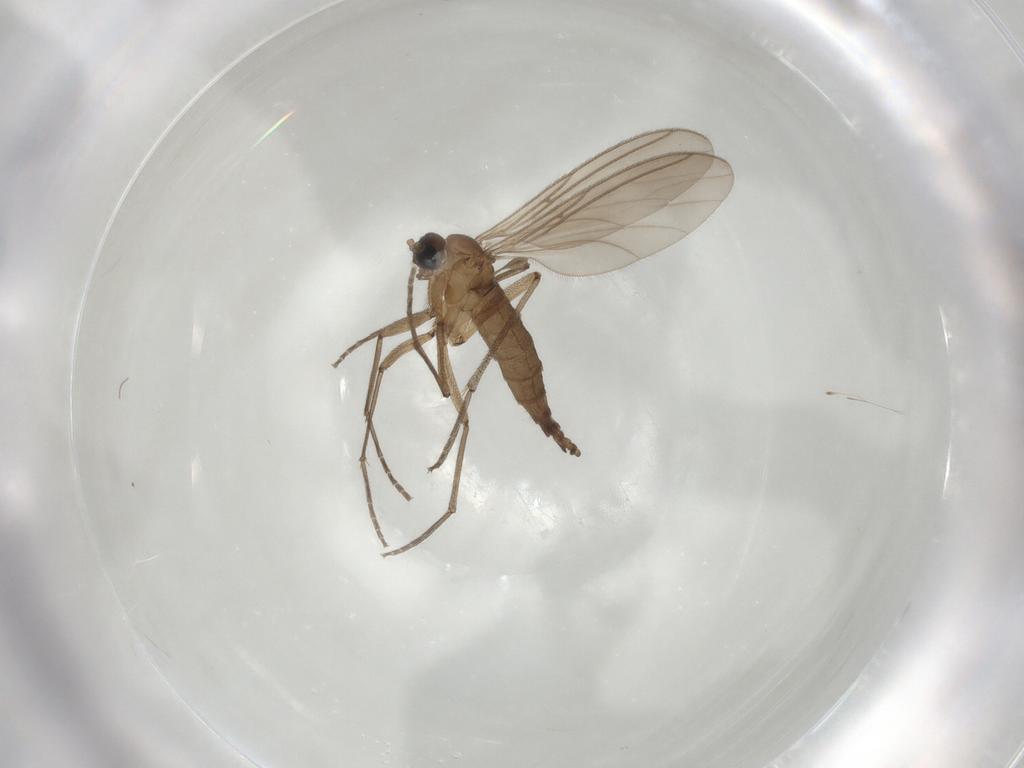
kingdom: Animalia
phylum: Arthropoda
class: Insecta
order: Diptera
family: Sciaridae
